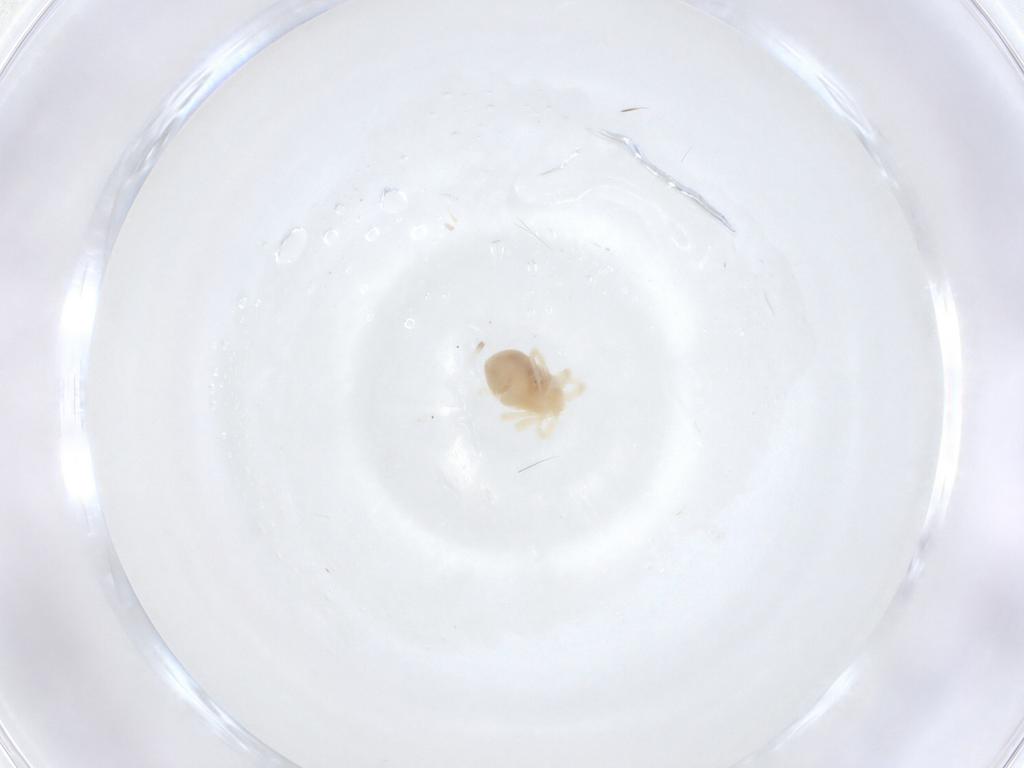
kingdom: Animalia
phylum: Arthropoda
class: Arachnida
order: Trombidiformes
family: Anystidae
